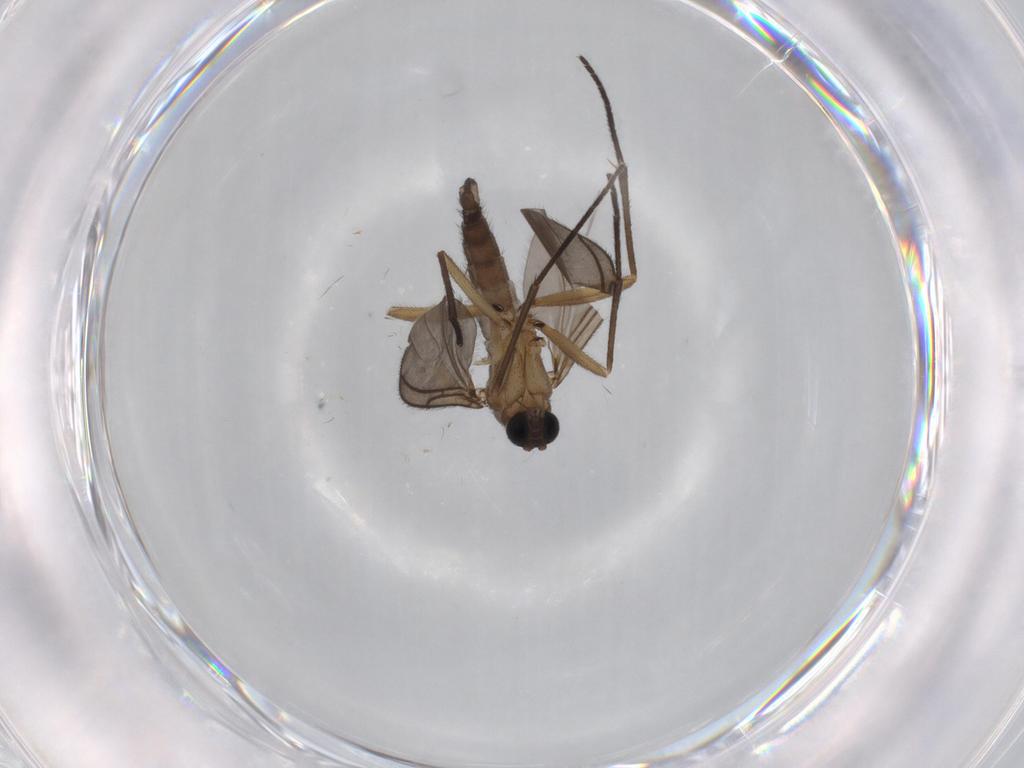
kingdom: Animalia
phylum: Arthropoda
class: Insecta
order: Diptera
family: Sciaridae
